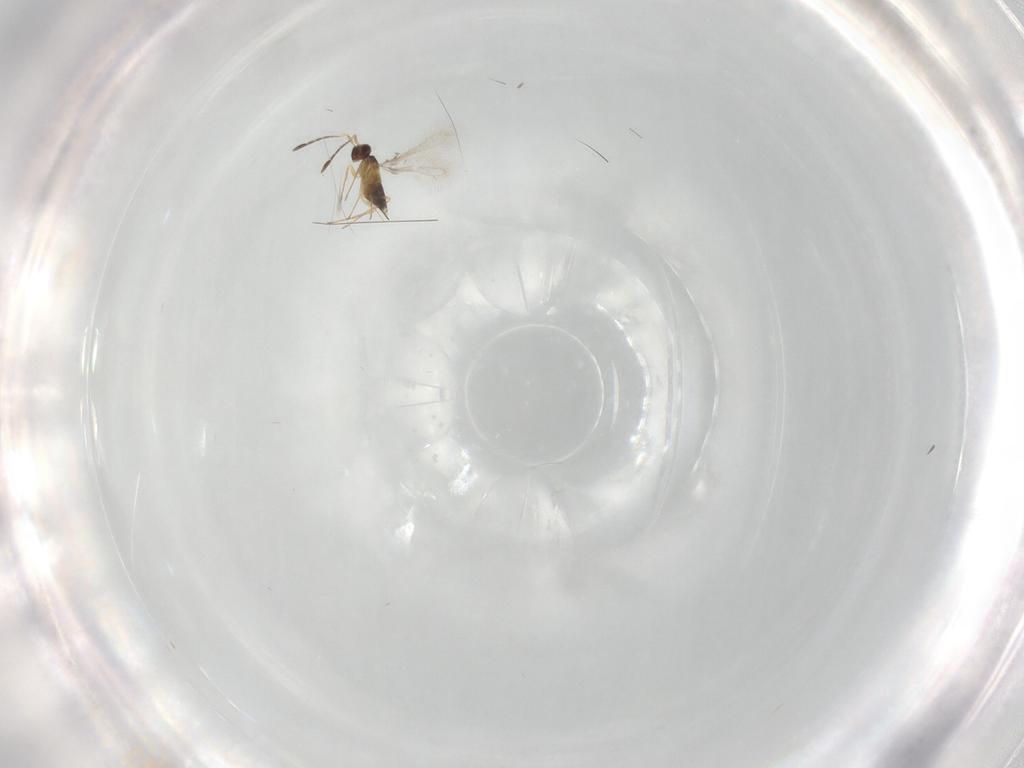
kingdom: Animalia
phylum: Arthropoda
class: Insecta
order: Hymenoptera
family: Mymaridae
